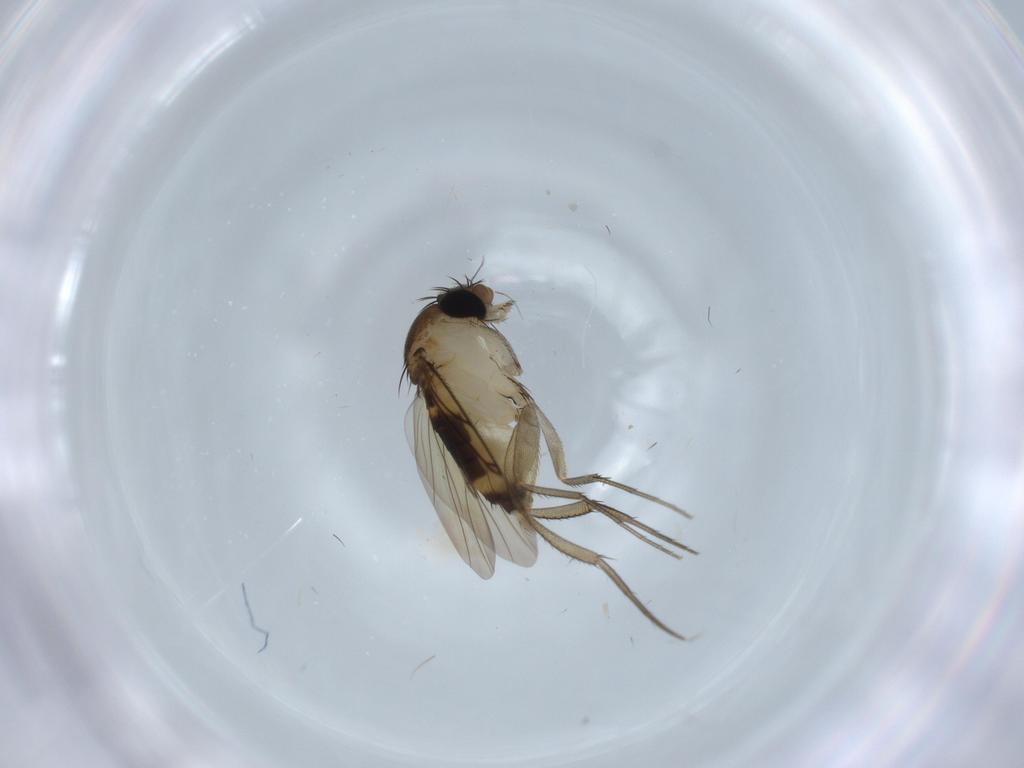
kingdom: Animalia
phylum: Arthropoda
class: Insecta
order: Diptera
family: Phoridae
